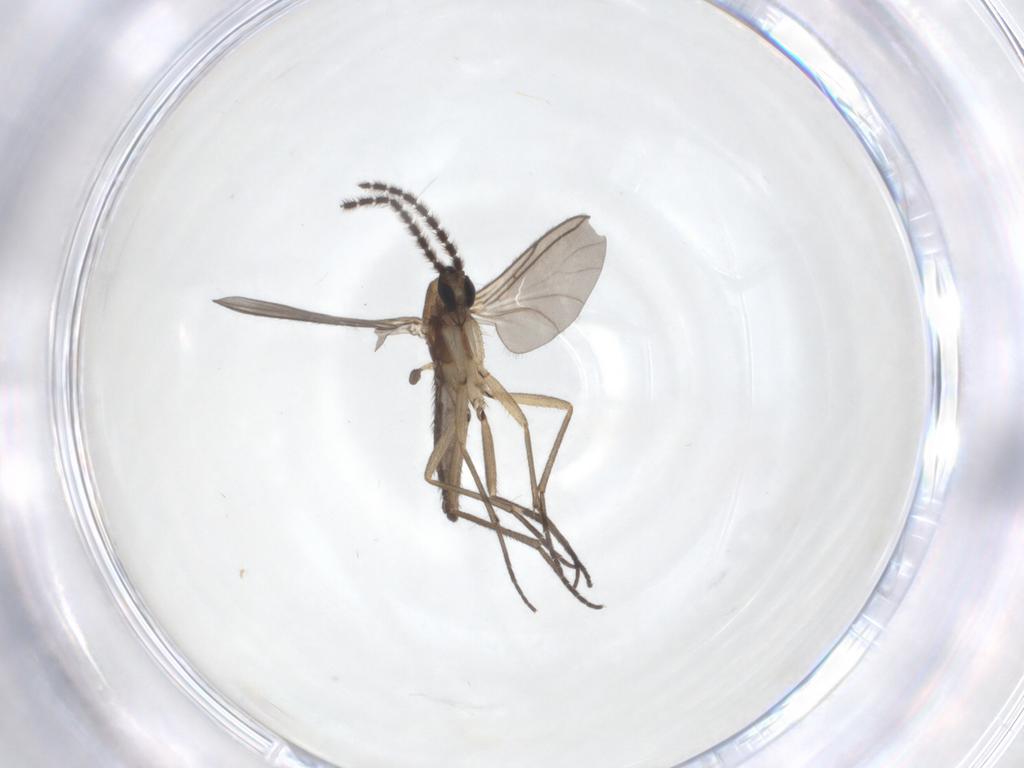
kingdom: Animalia
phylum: Arthropoda
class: Insecta
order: Diptera
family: Sciaridae
